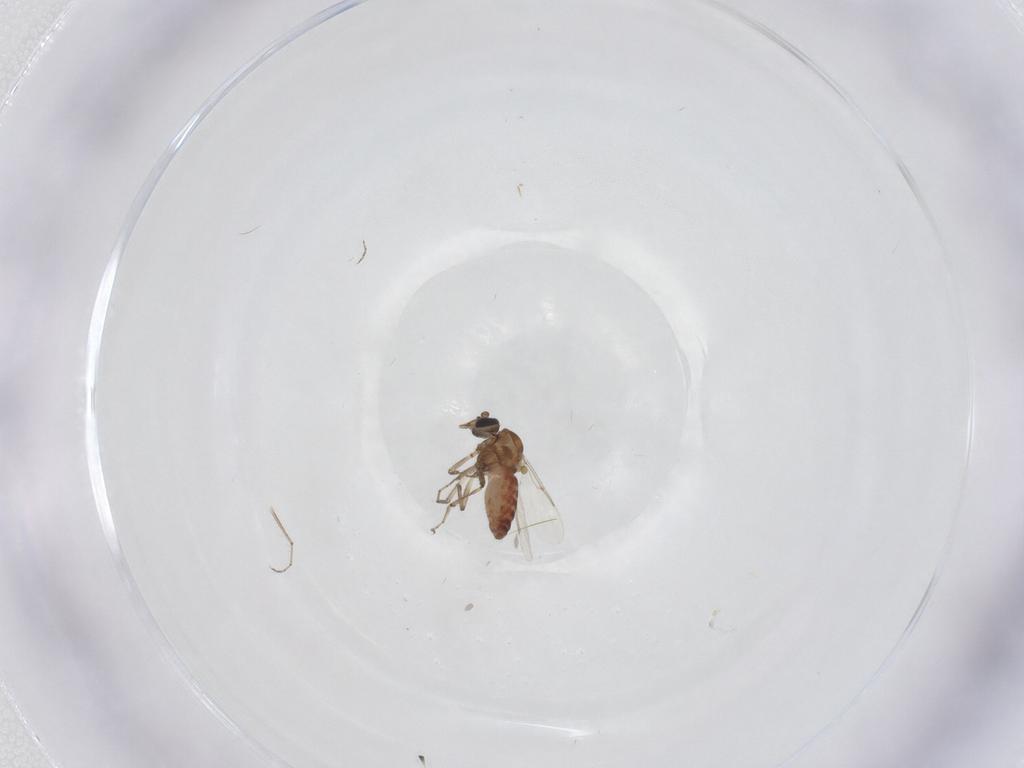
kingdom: Animalia
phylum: Arthropoda
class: Insecta
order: Diptera
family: Ceratopogonidae
